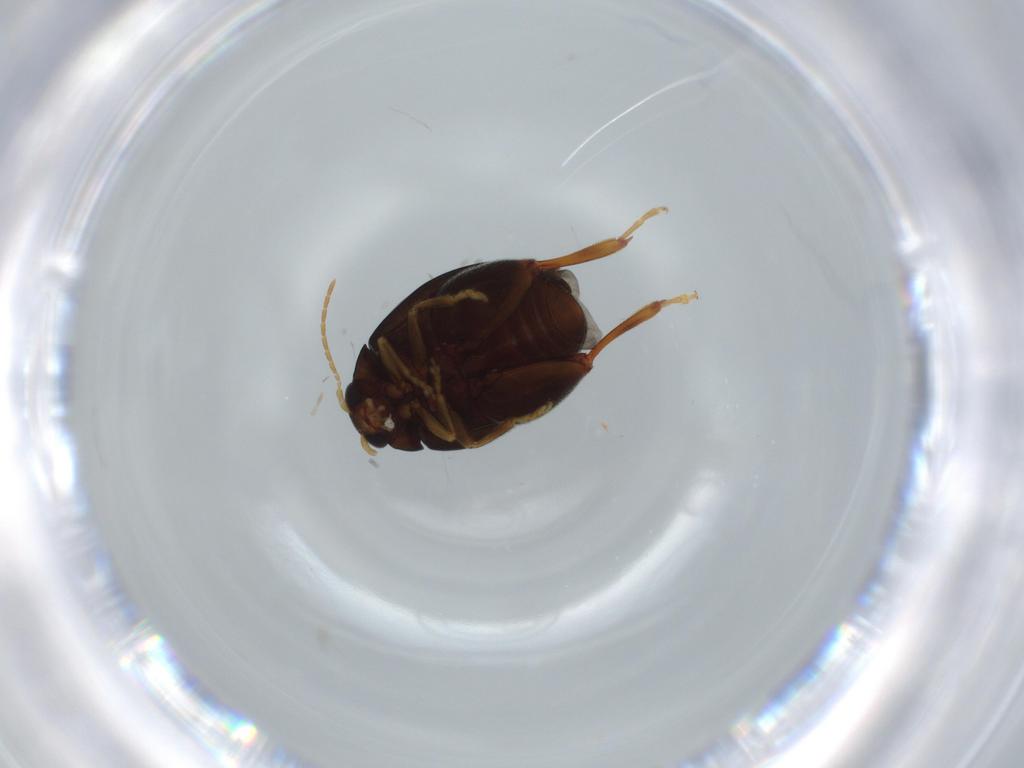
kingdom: Animalia
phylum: Arthropoda
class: Insecta
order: Coleoptera
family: Chrysomelidae
